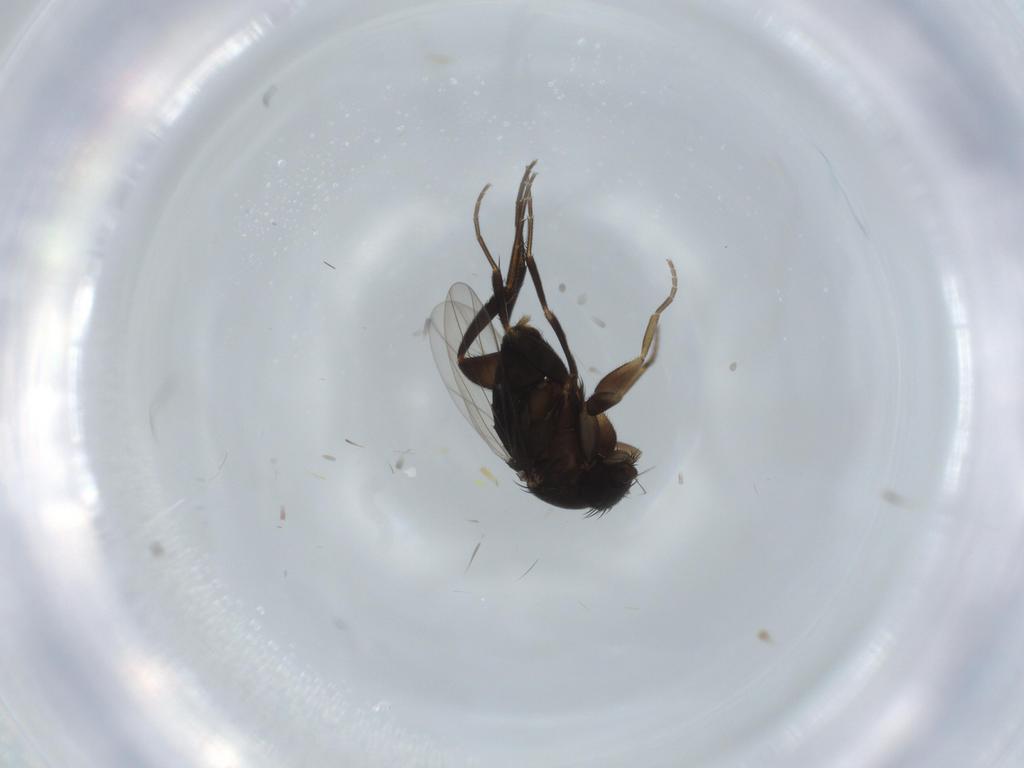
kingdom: Animalia
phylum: Arthropoda
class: Insecta
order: Diptera
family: Phoridae
